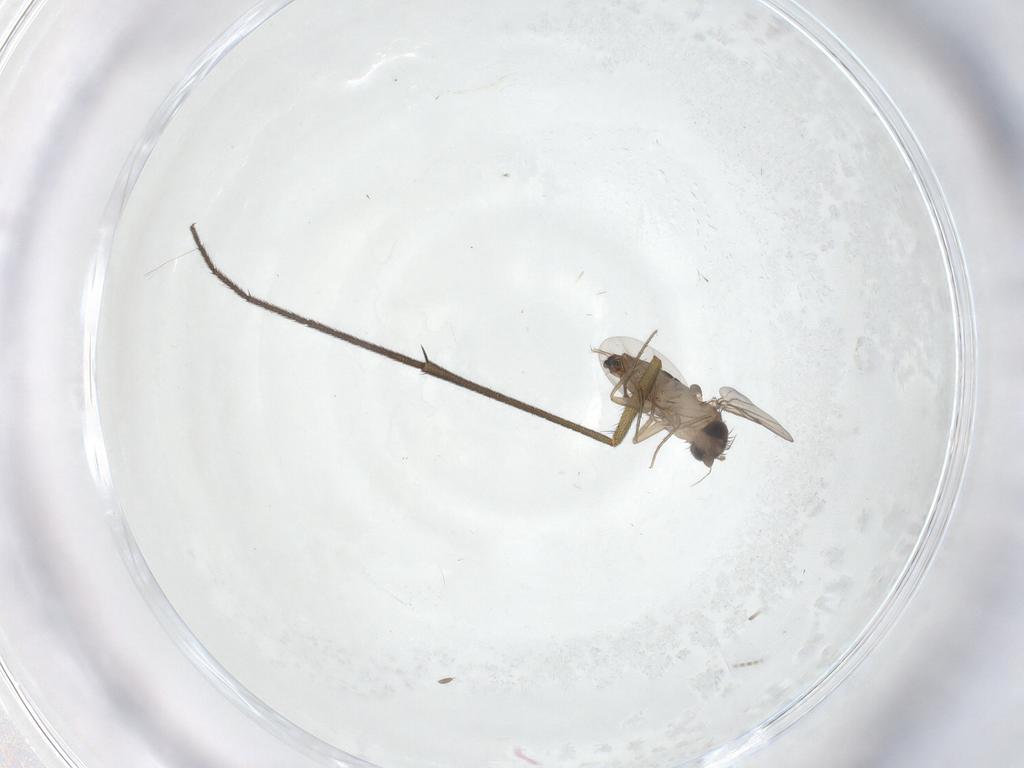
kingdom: Animalia
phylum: Arthropoda
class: Insecta
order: Diptera
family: Ditomyiidae
